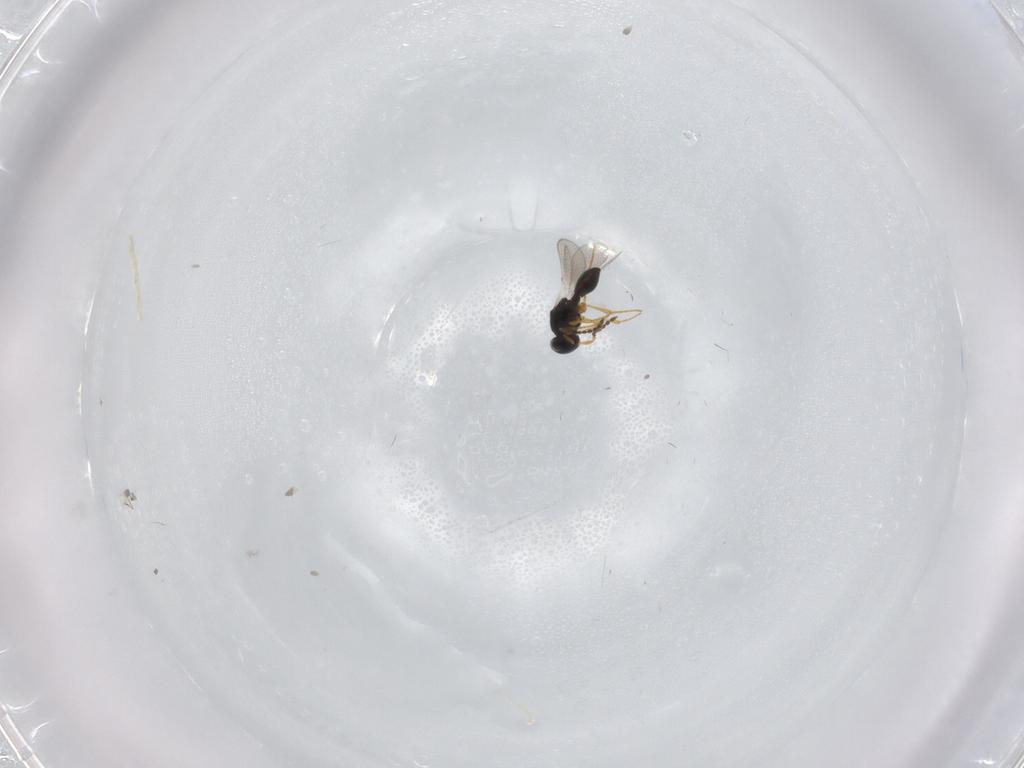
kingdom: Animalia
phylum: Arthropoda
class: Insecta
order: Hymenoptera
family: Platygastridae
